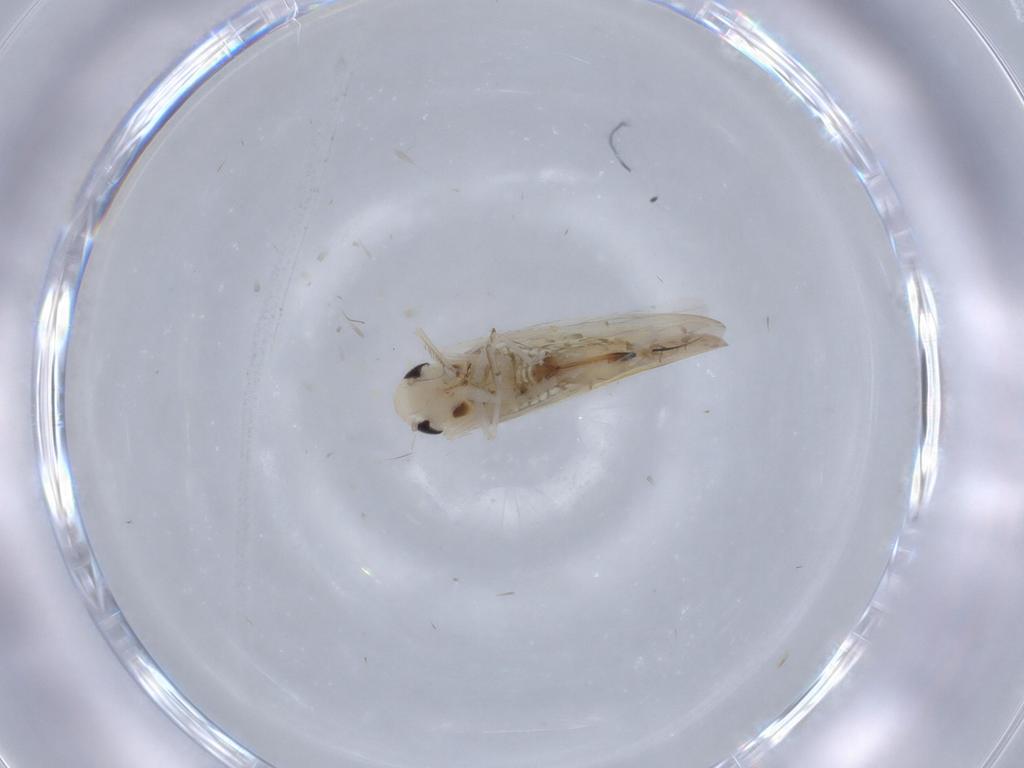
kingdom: Animalia
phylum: Arthropoda
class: Insecta
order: Hemiptera
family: Cicadellidae
